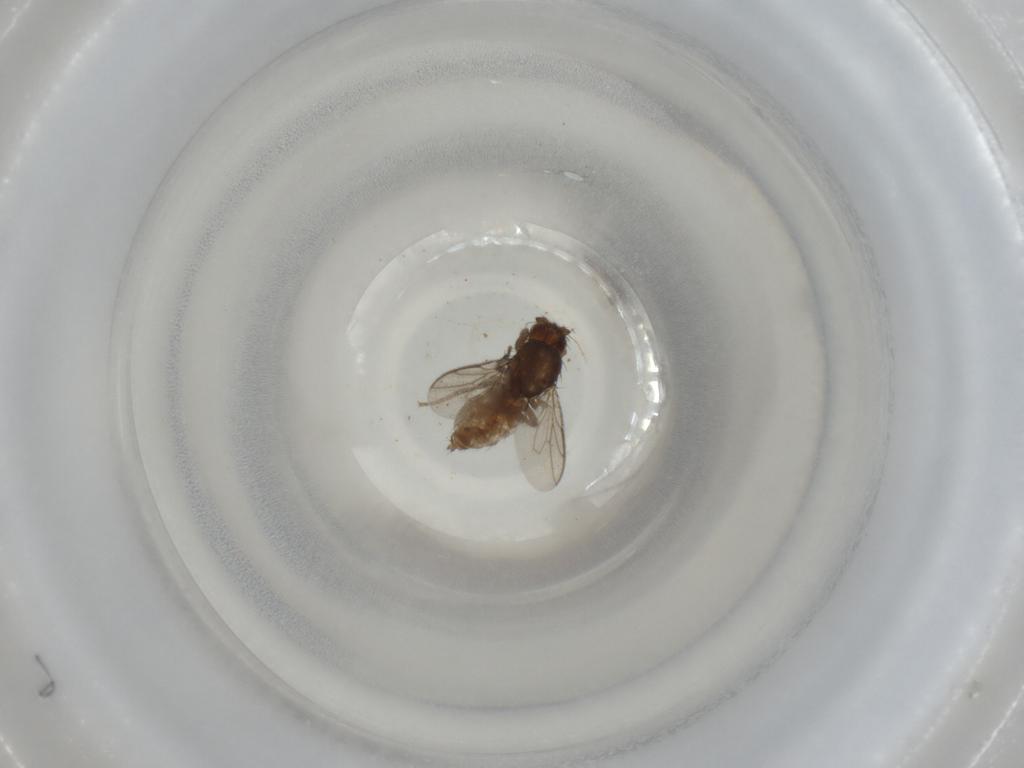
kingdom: Animalia
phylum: Arthropoda
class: Insecta
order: Diptera
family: Sphaeroceridae
